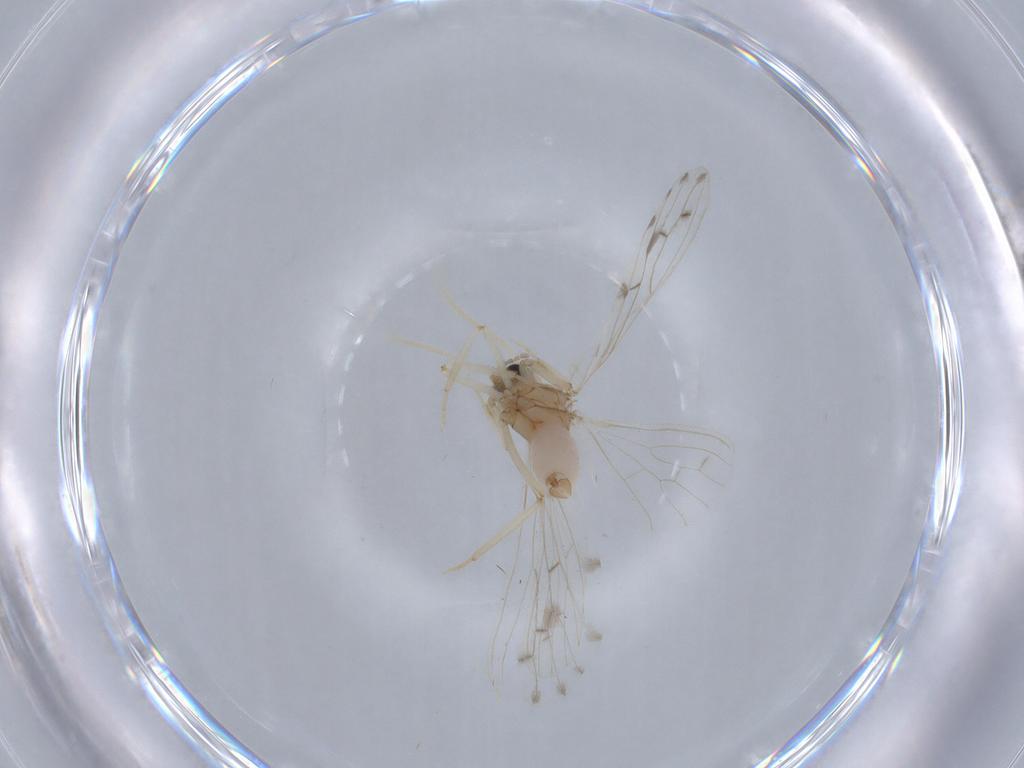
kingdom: Animalia
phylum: Arthropoda
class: Insecta
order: Neuroptera
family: Coniopterygidae
